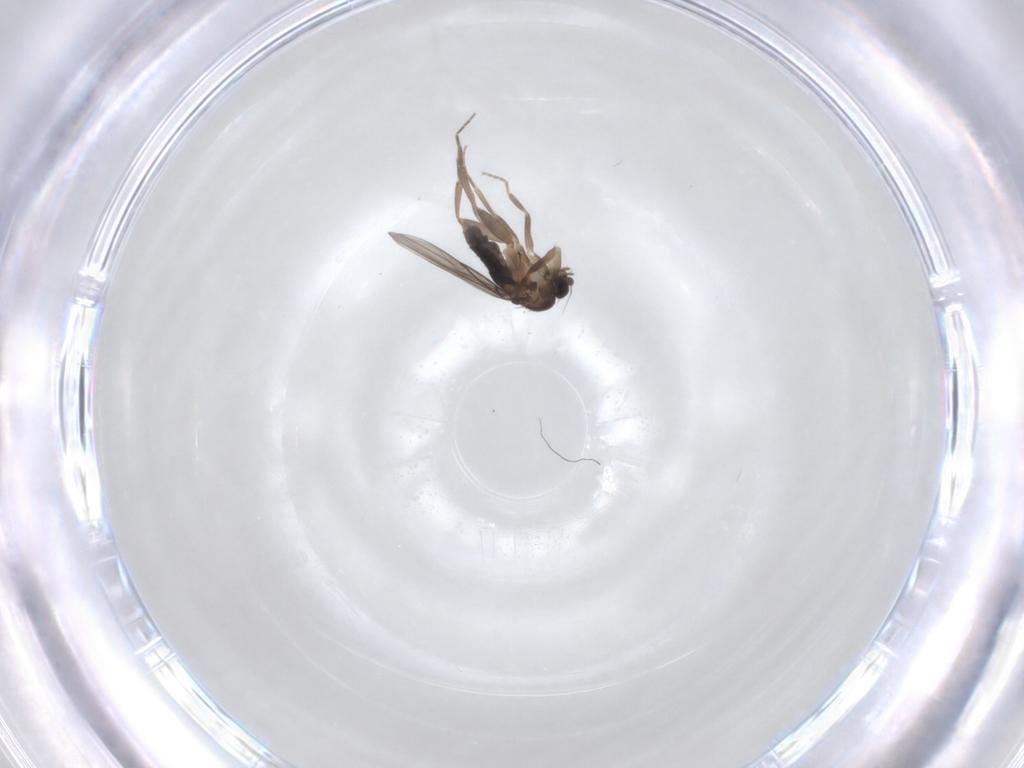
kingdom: Animalia
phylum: Arthropoda
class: Insecta
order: Diptera
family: Phoridae
